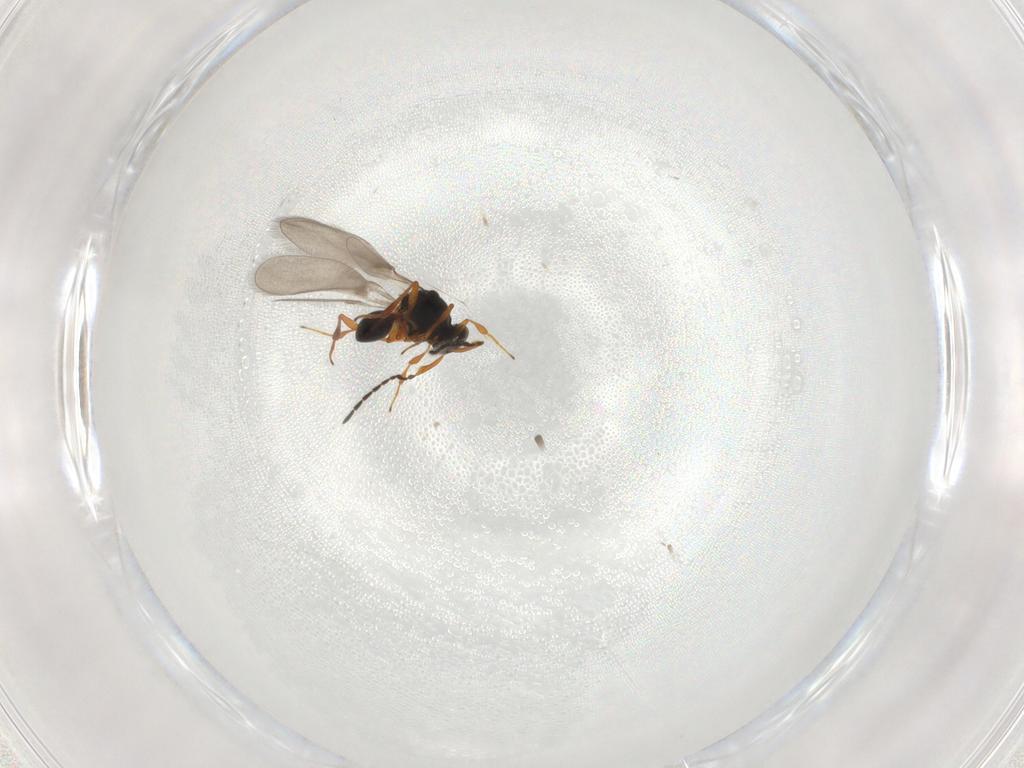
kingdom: Animalia
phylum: Arthropoda
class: Insecta
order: Hymenoptera
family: Platygastridae
